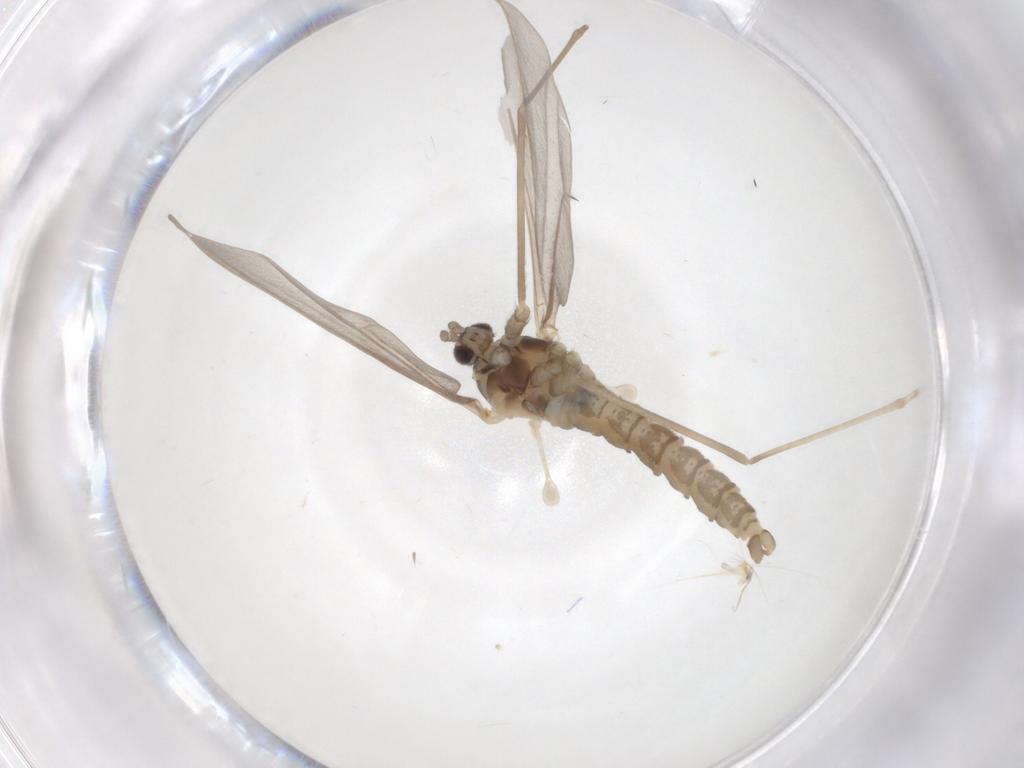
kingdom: Animalia
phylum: Arthropoda
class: Insecta
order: Diptera
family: Cecidomyiidae
